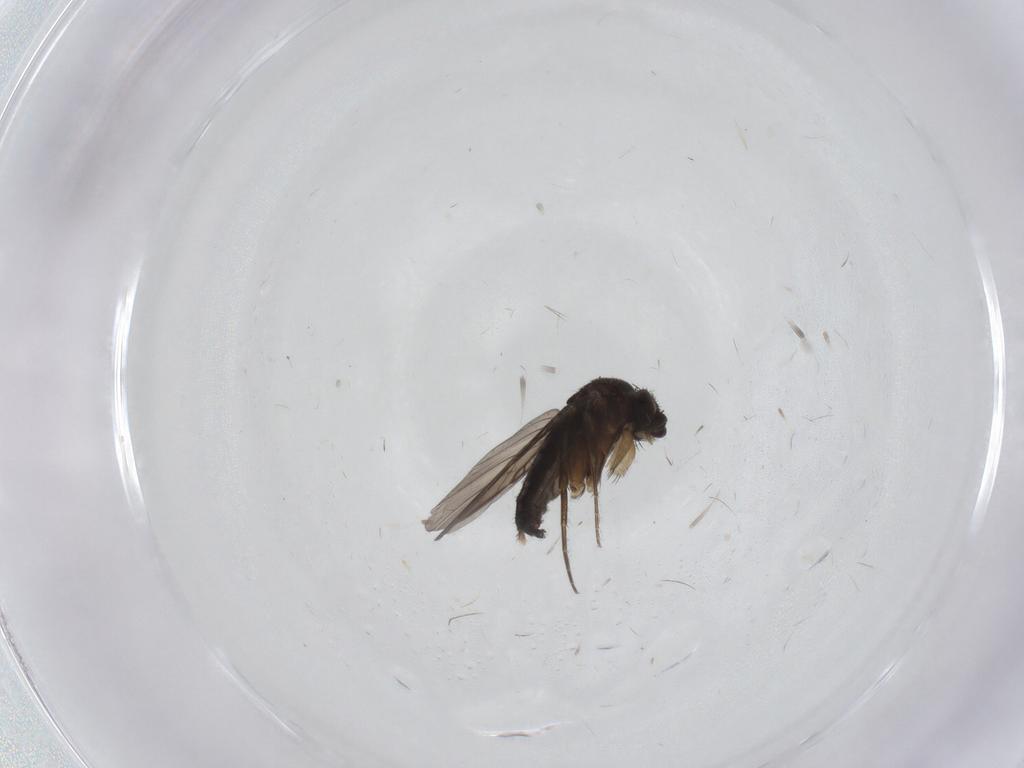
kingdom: Animalia
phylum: Arthropoda
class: Insecta
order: Diptera
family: Phoridae
